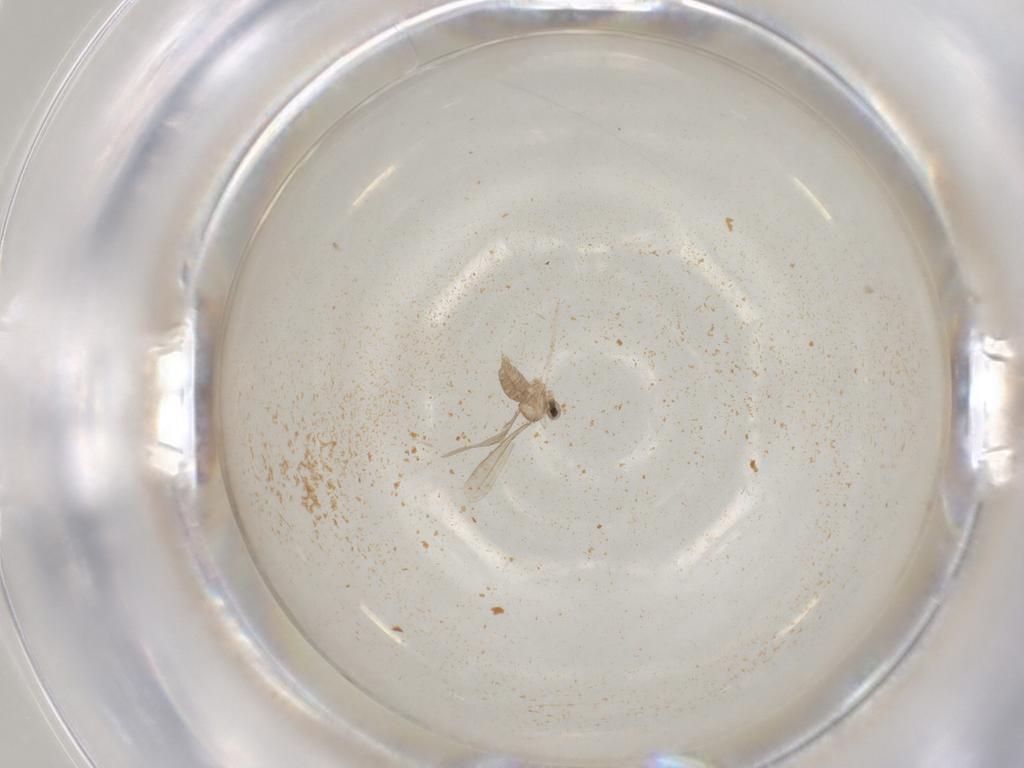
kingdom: Animalia
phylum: Arthropoda
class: Insecta
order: Diptera
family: Cecidomyiidae
